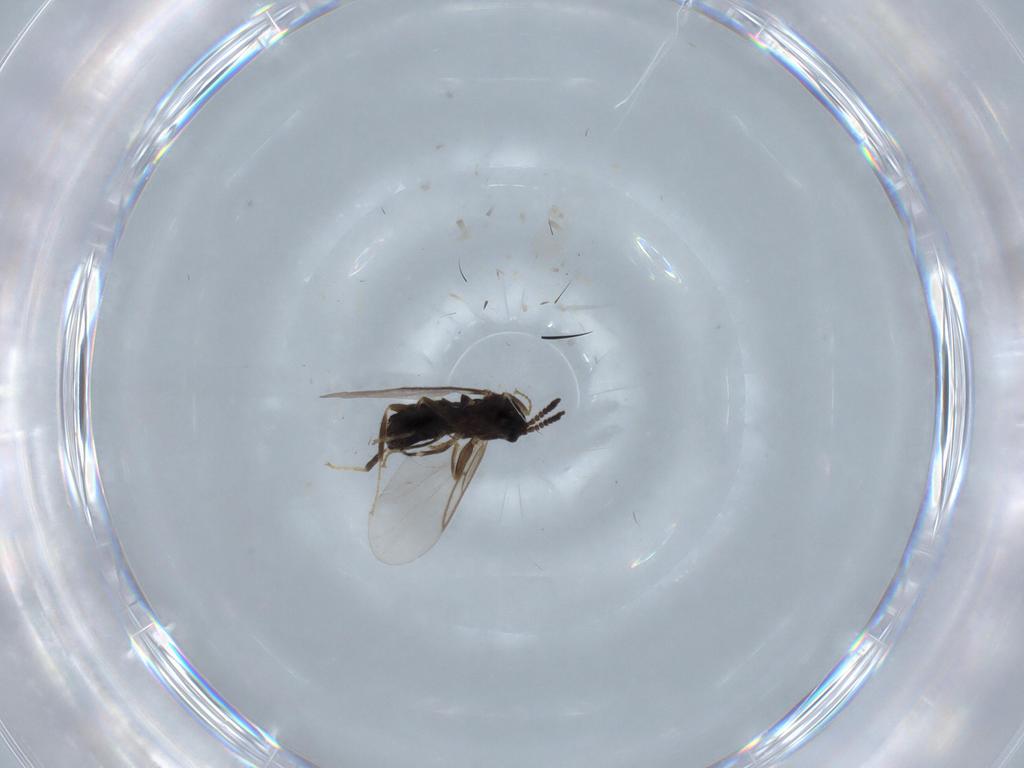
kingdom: Animalia
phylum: Arthropoda
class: Insecta
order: Diptera
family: Hybotidae
